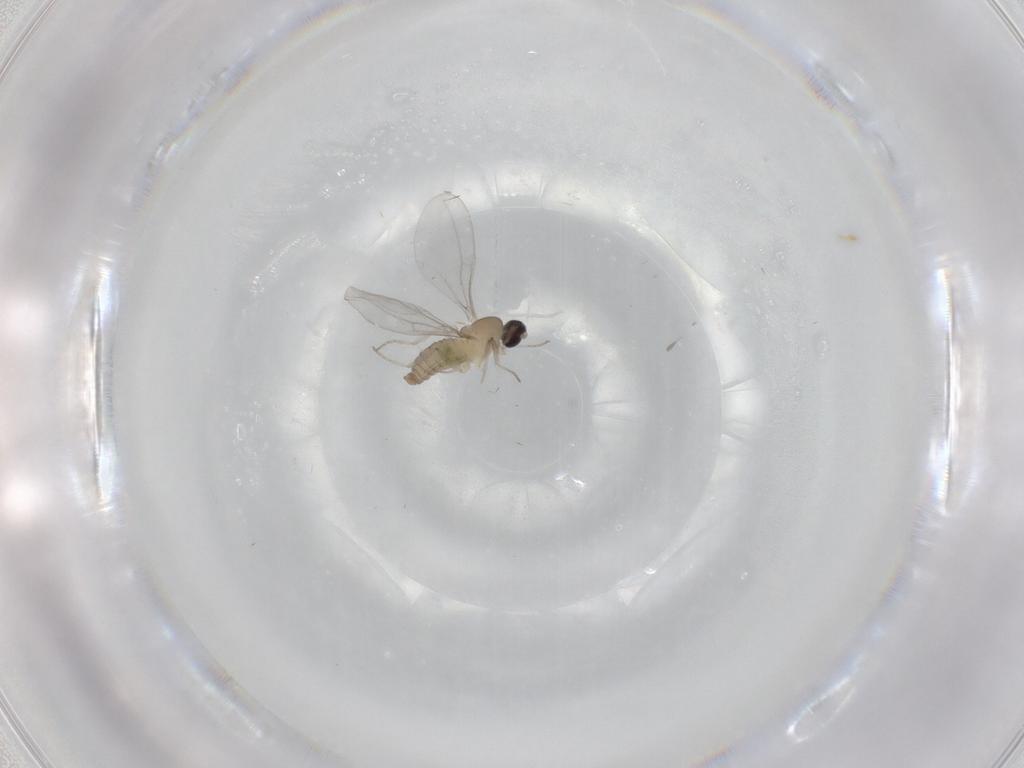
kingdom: Animalia
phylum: Arthropoda
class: Insecta
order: Diptera
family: Cecidomyiidae
